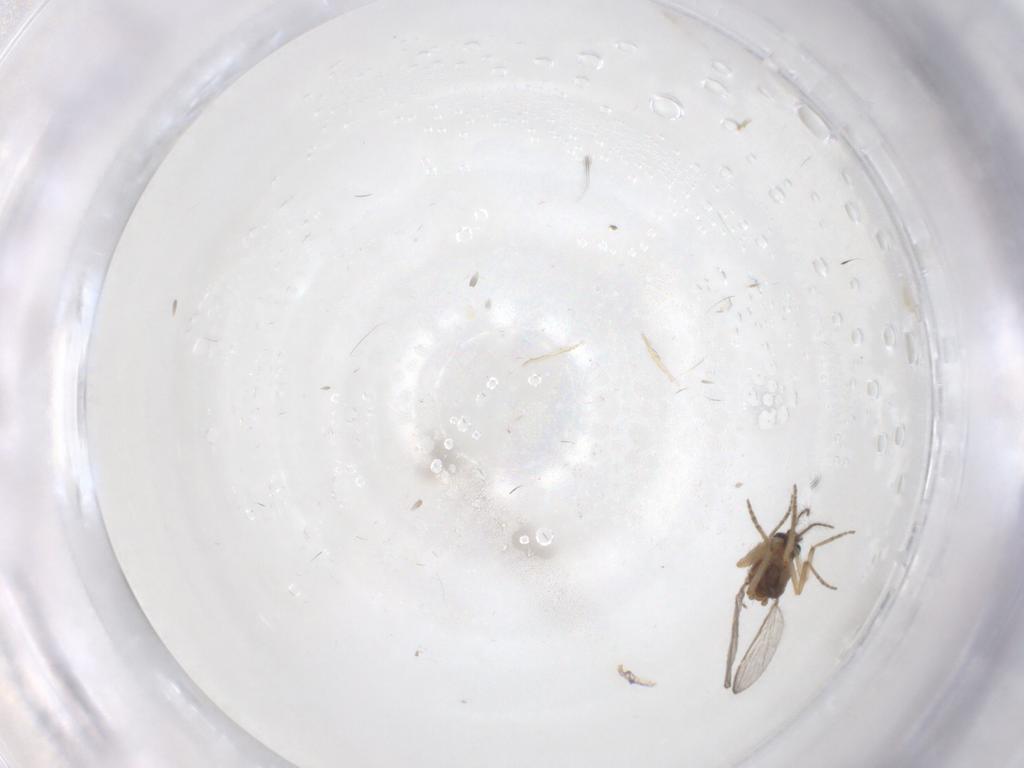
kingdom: Animalia
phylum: Arthropoda
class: Insecta
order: Diptera
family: Ceratopogonidae
